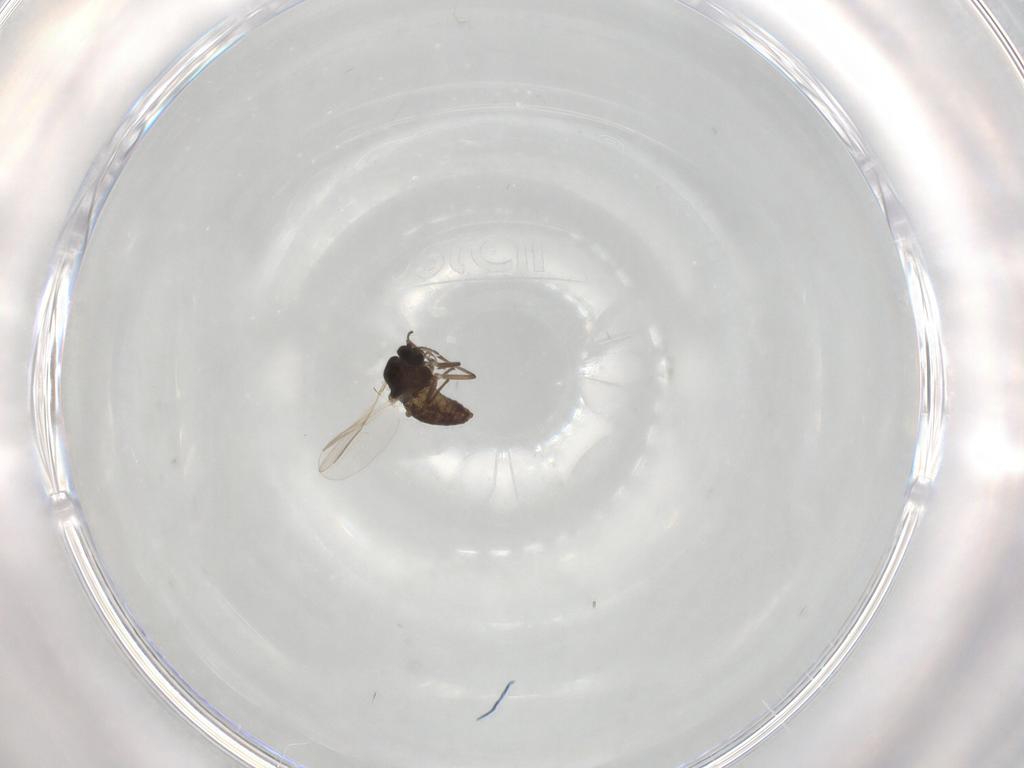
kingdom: Animalia
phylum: Arthropoda
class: Insecta
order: Diptera
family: Chironomidae
